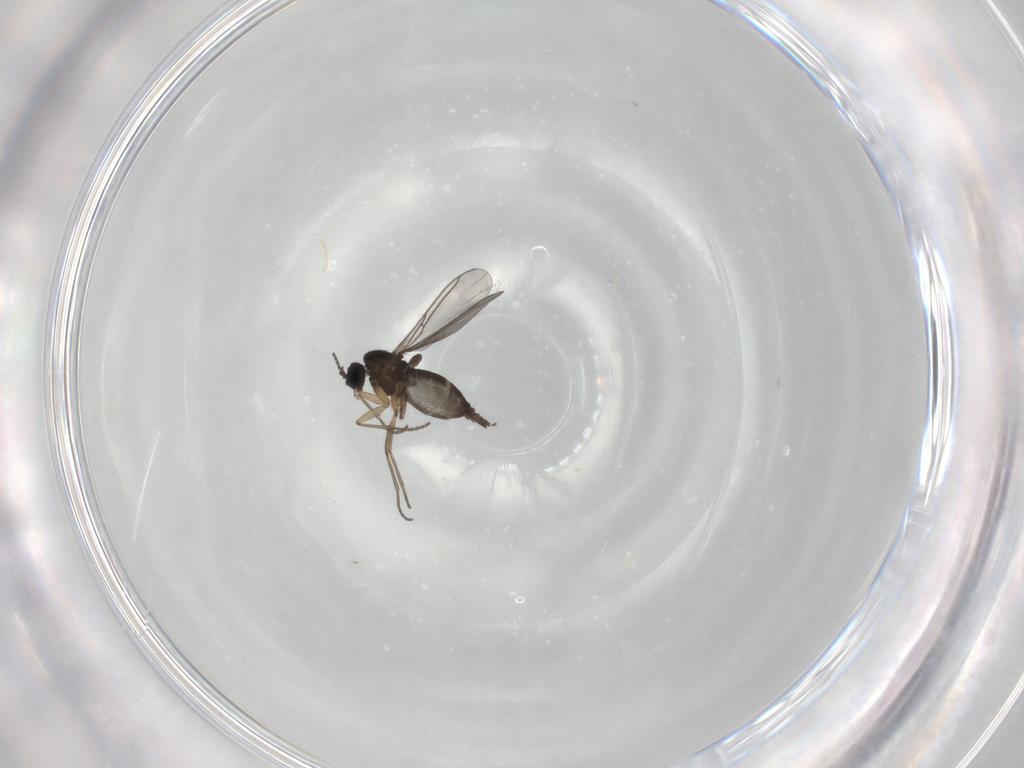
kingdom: Animalia
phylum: Arthropoda
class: Insecta
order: Diptera
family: Sciaridae
